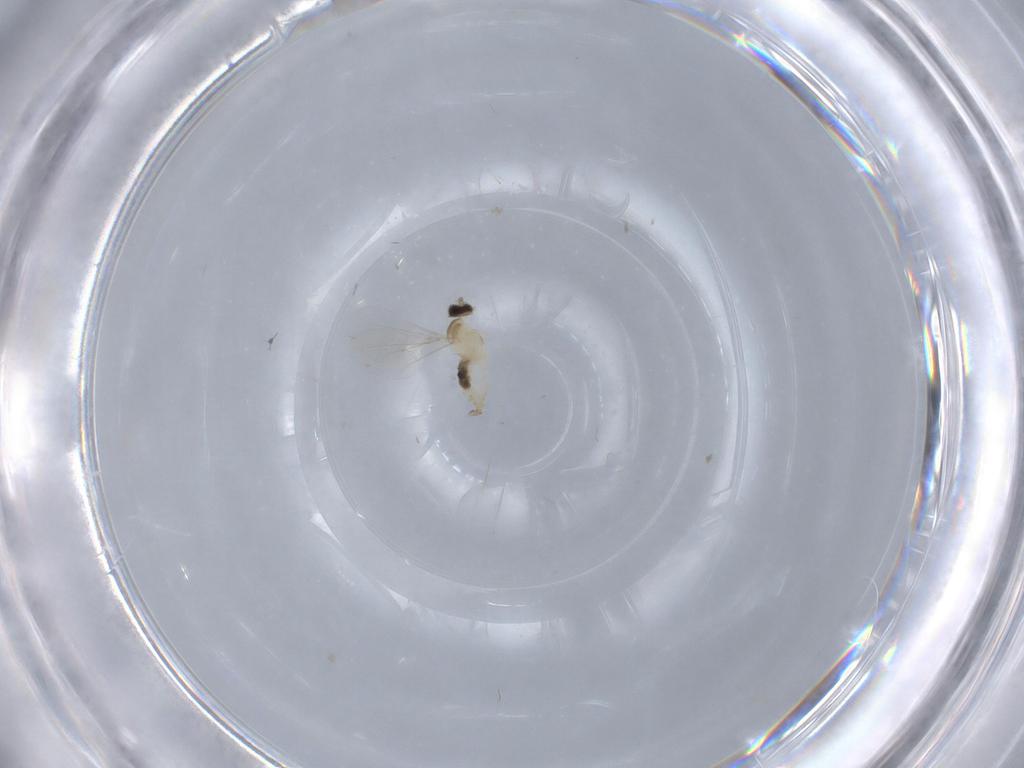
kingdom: Animalia
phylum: Arthropoda
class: Insecta
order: Diptera
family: Cecidomyiidae
